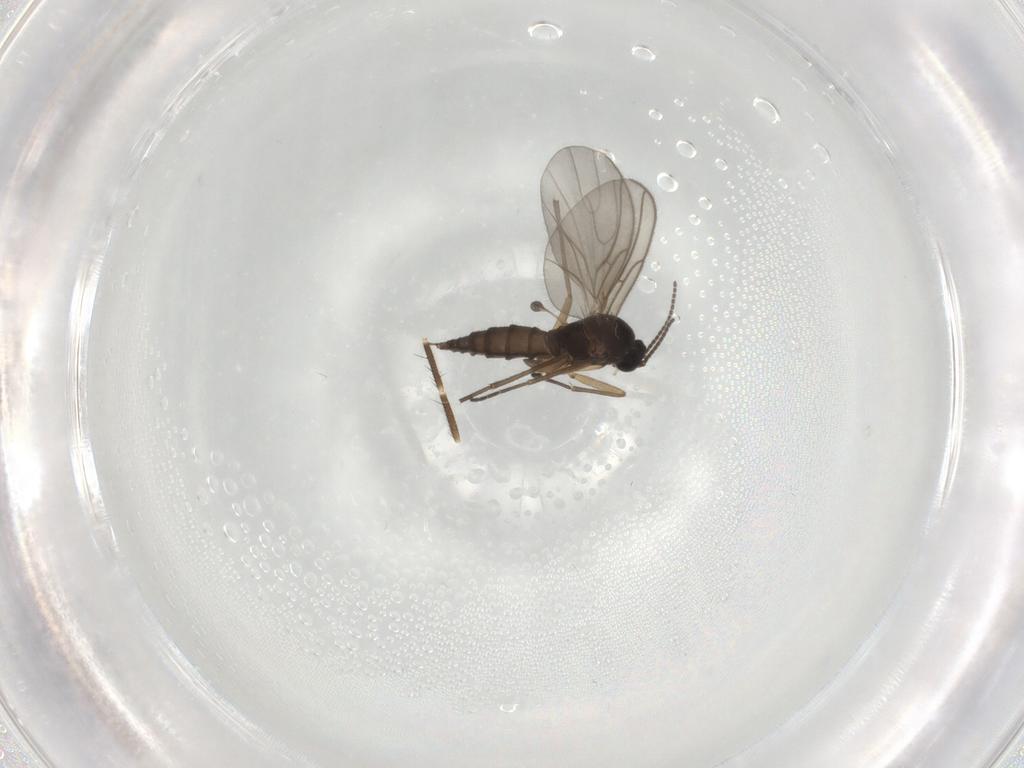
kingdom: Animalia
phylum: Arthropoda
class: Insecta
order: Diptera
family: Sciaridae
